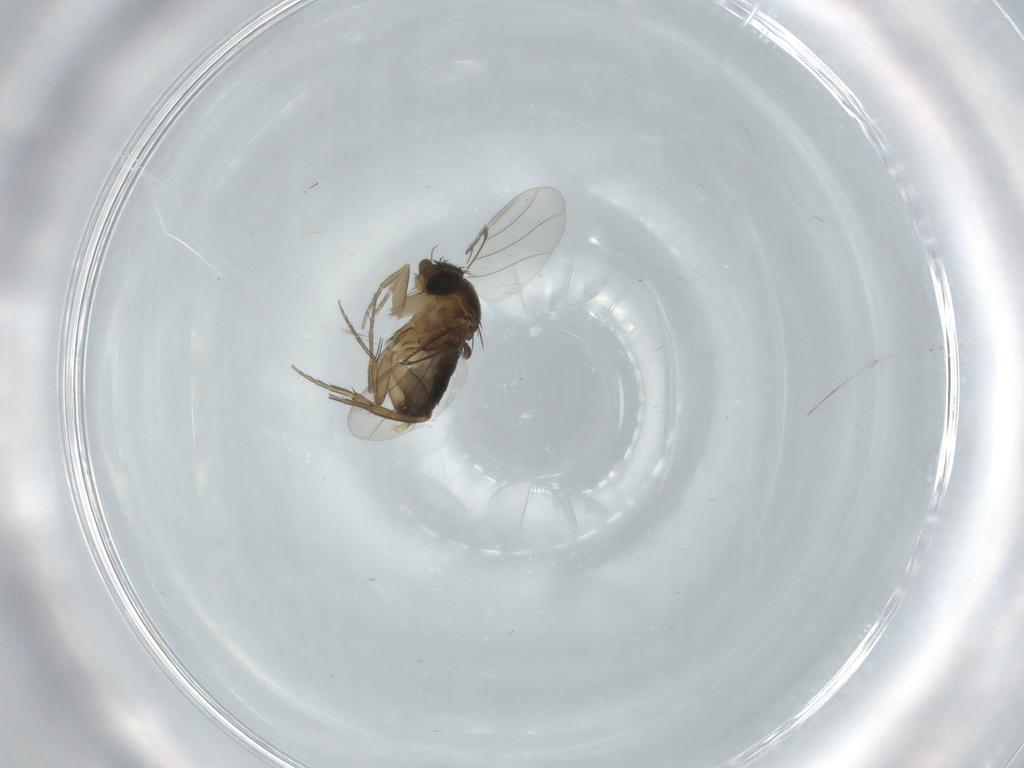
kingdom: Animalia
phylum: Arthropoda
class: Insecta
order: Diptera
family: Phoridae
